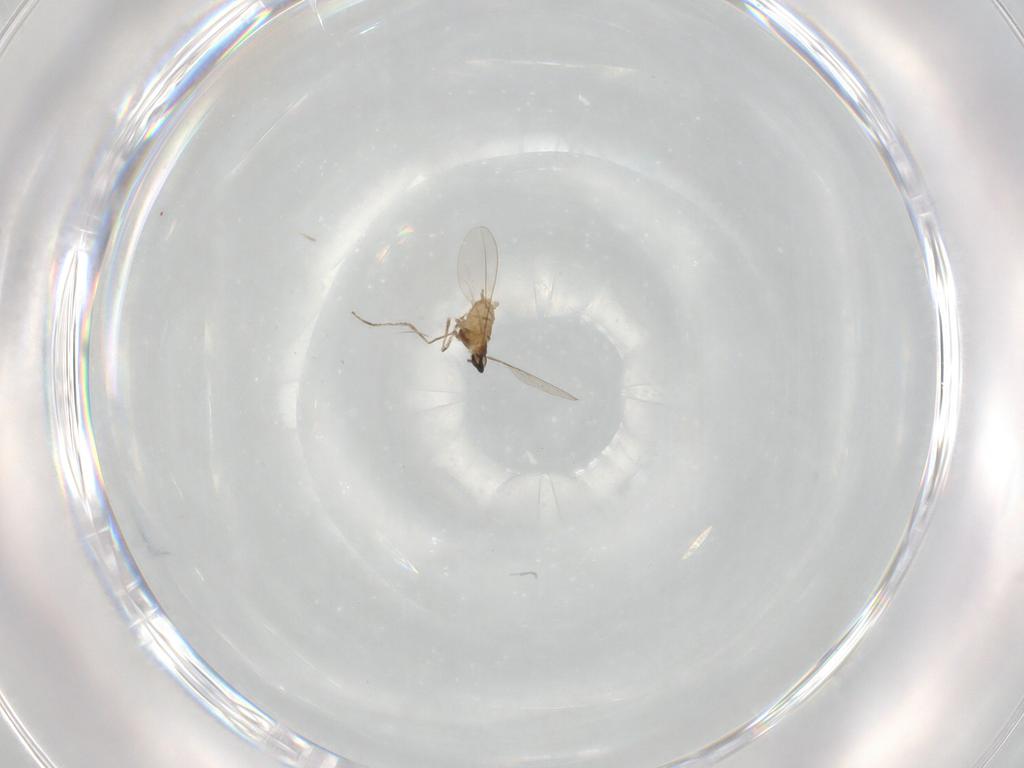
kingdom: Animalia
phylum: Arthropoda
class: Insecta
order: Diptera
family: Cecidomyiidae
